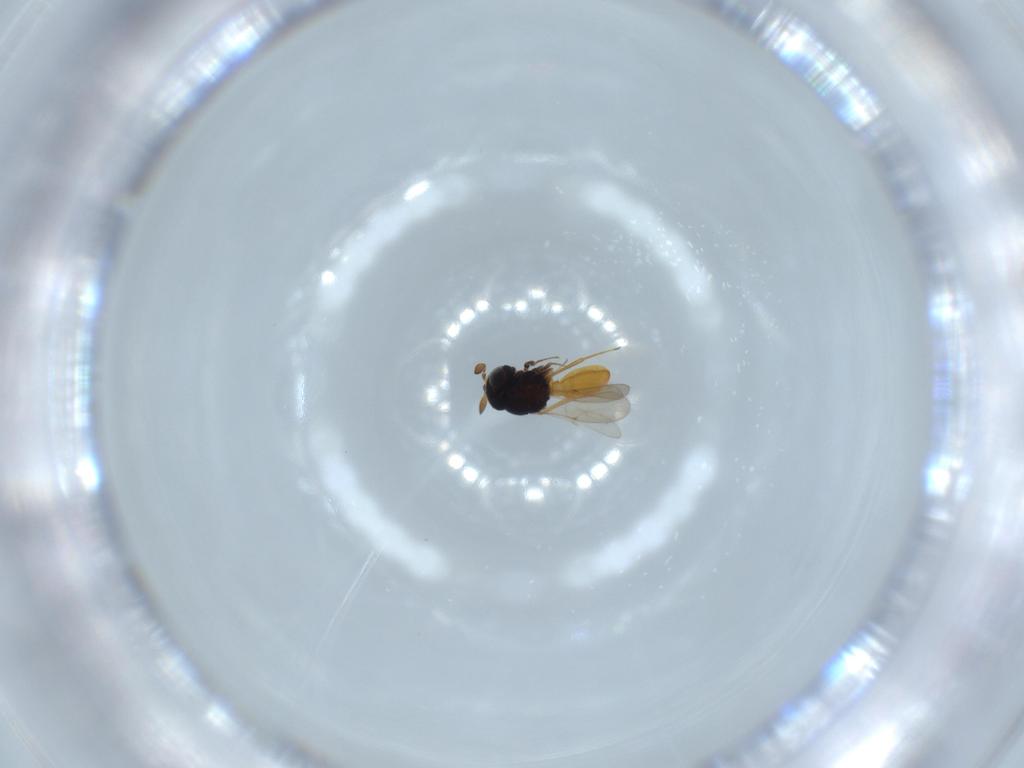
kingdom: Animalia
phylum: Arthropoda
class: Insecta
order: Hymenoptera
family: Scelionidae
